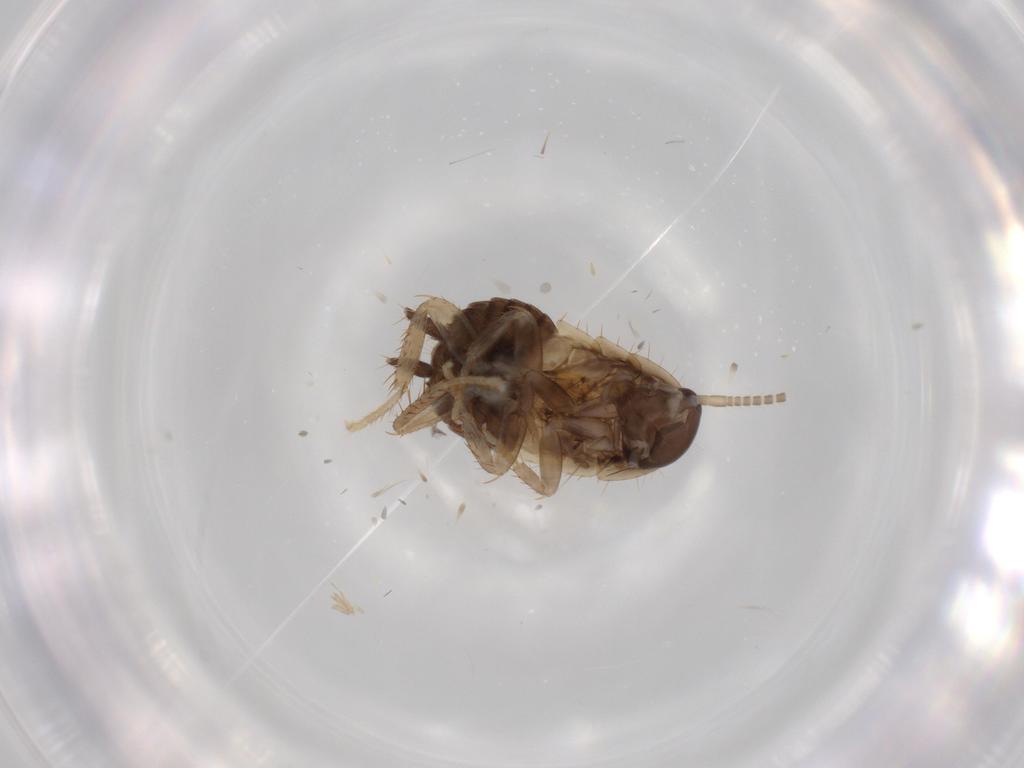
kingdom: Animalia
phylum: Arthropoda
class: Insecta
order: Blattodea
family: Ectobiidae
